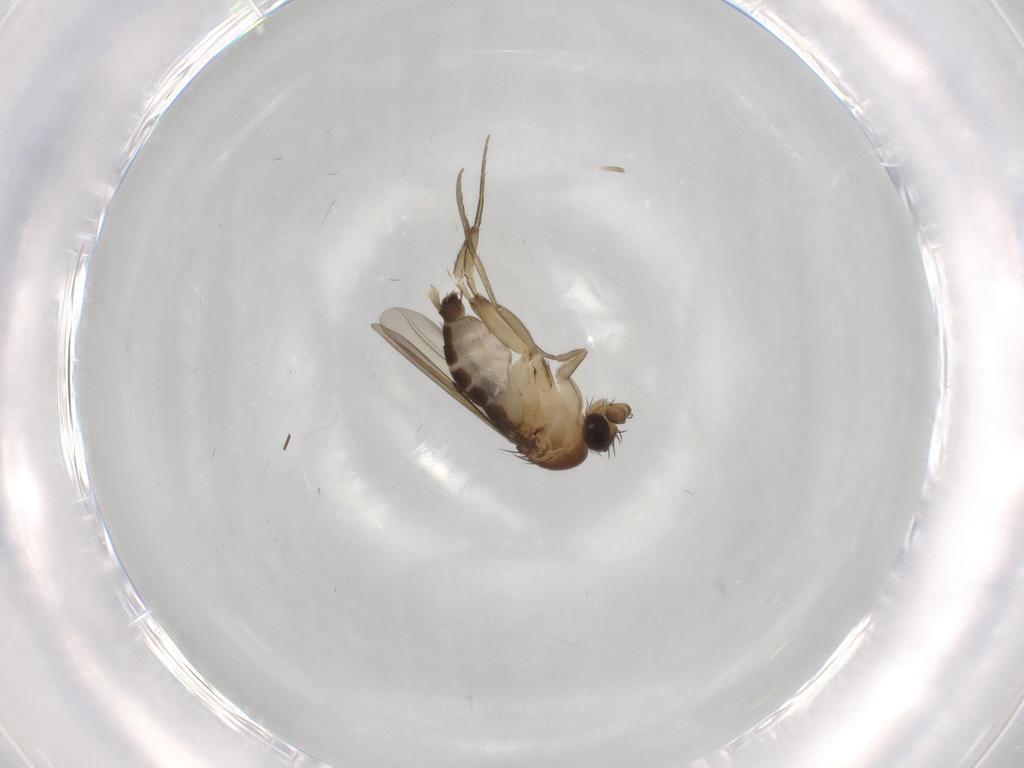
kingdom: Animalia
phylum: Arthropoda
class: Insecta
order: Diptera
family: Phoridae
